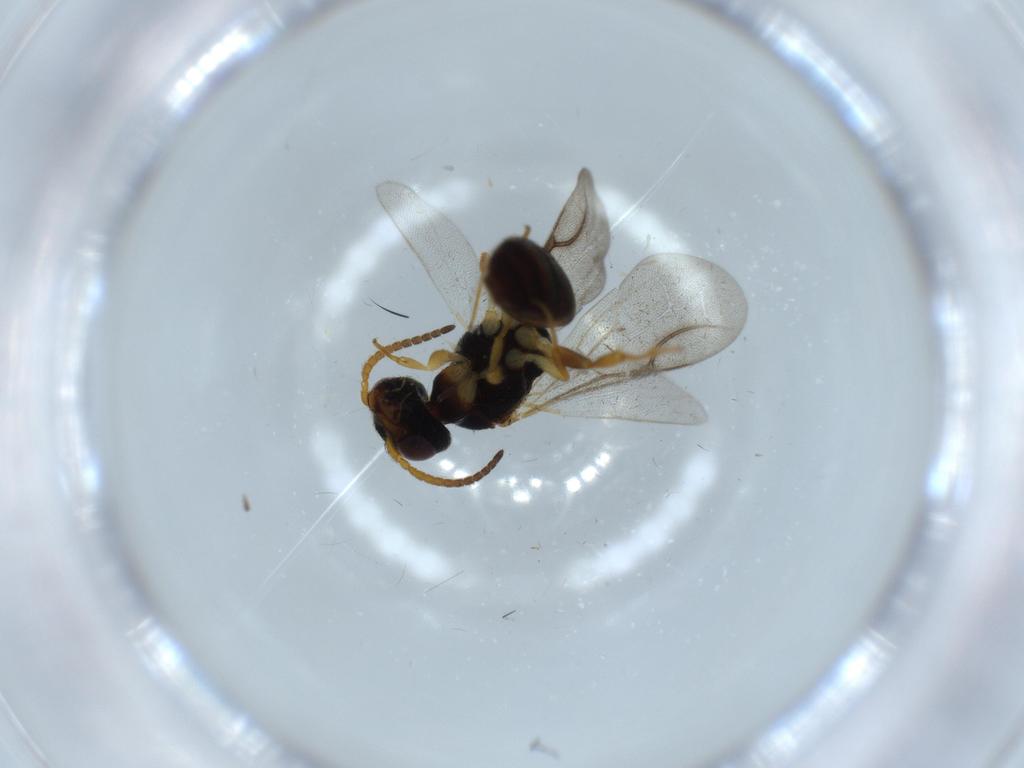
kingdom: Animalia
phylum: Arthropoda
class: Insecta
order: Hymenoptera
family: Bethylidae
